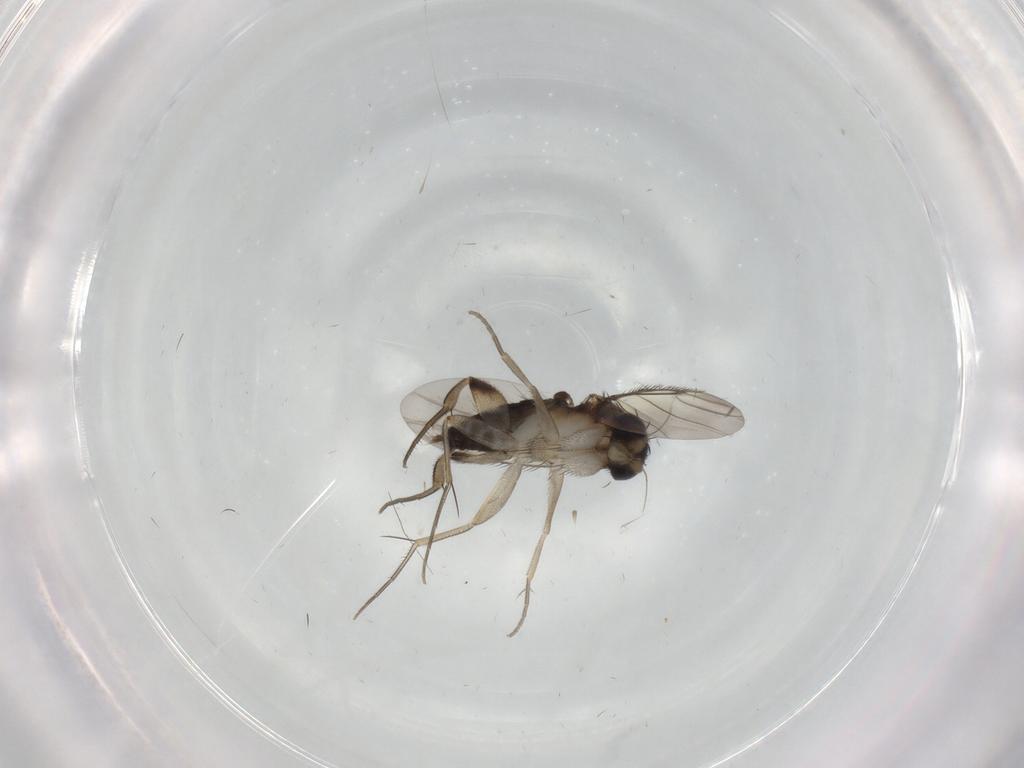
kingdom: Animalia
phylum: Arthropoda
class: Insecta
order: Diptera
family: Phoridae
